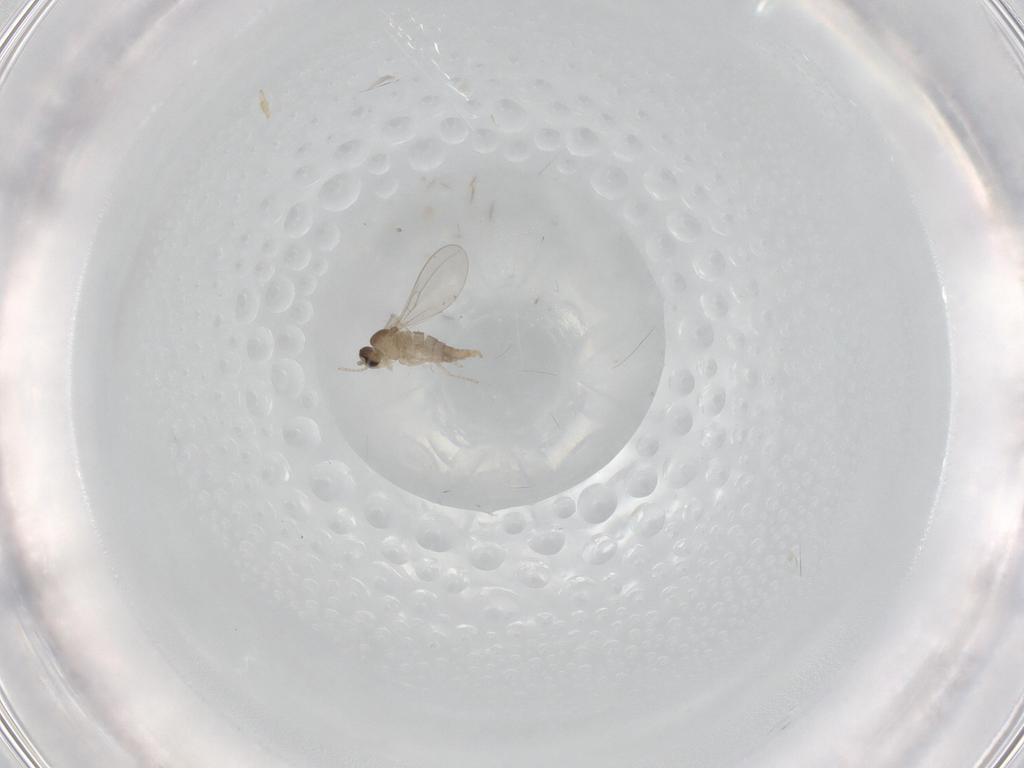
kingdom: Animalia
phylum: Arthropoda
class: Insecta
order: Diptera
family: Cecidomyiidae
